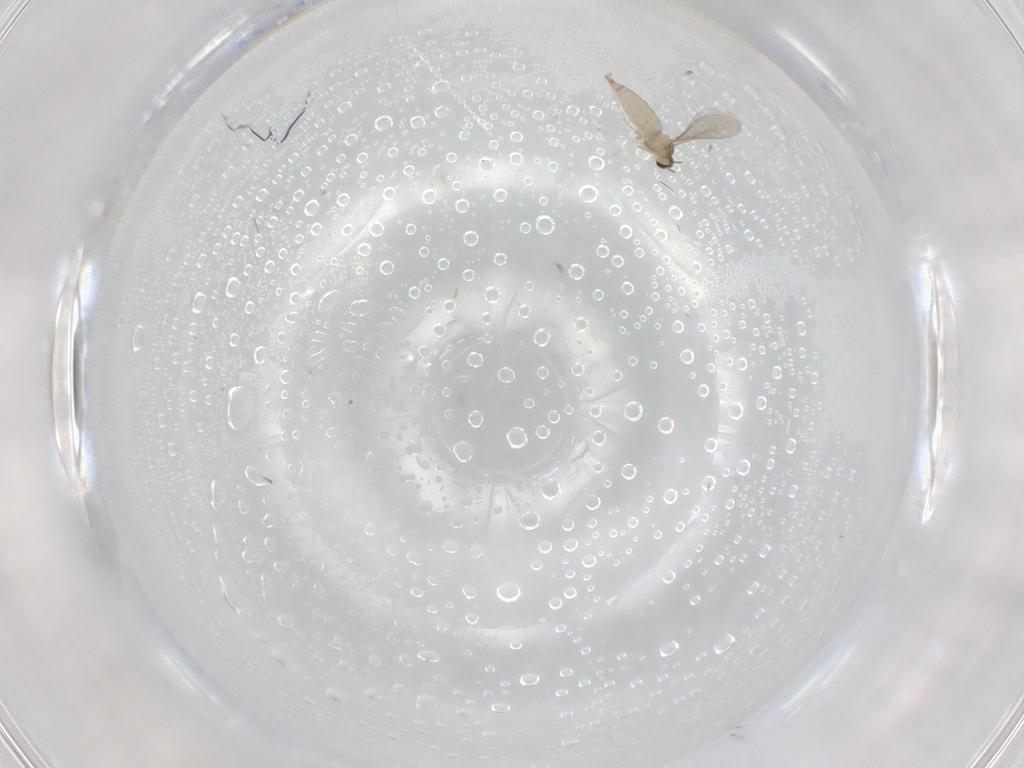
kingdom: Animalia
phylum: Arthropoda
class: Insecta
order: Diptera
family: Cecidomyiidae
